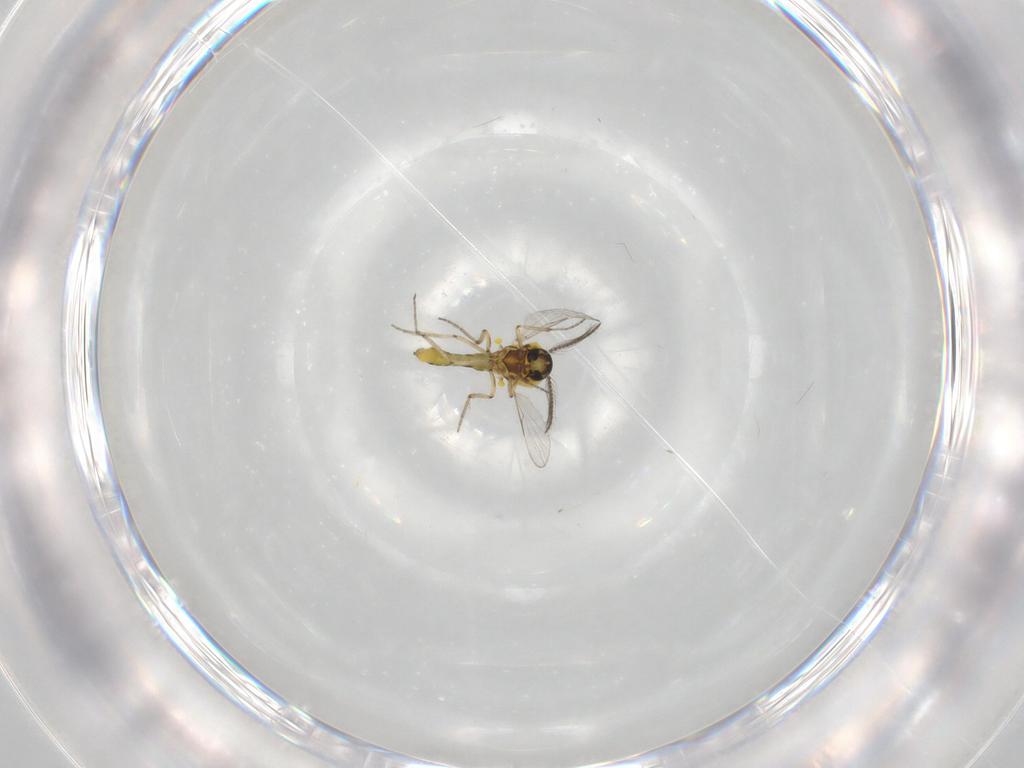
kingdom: Animalia
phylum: Arthropoda
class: Insecta
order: Diptera
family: Ceratopogonidae
